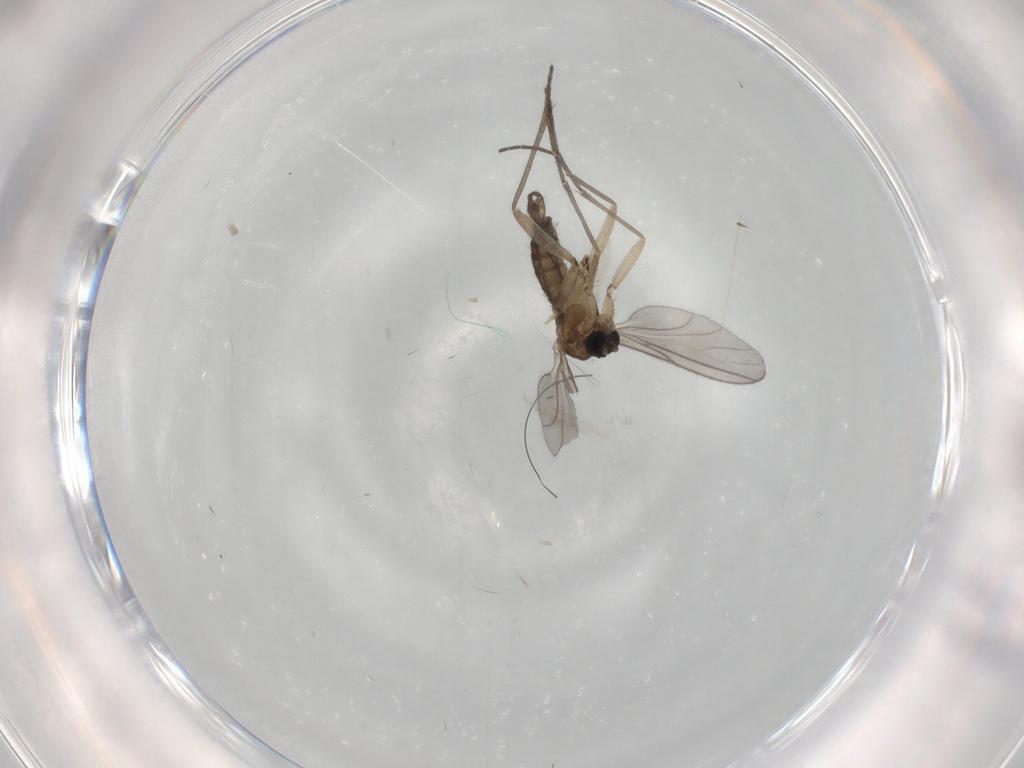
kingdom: Animalia
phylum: Arthropoda
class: Insecta
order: Diptera
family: Sciaridae
